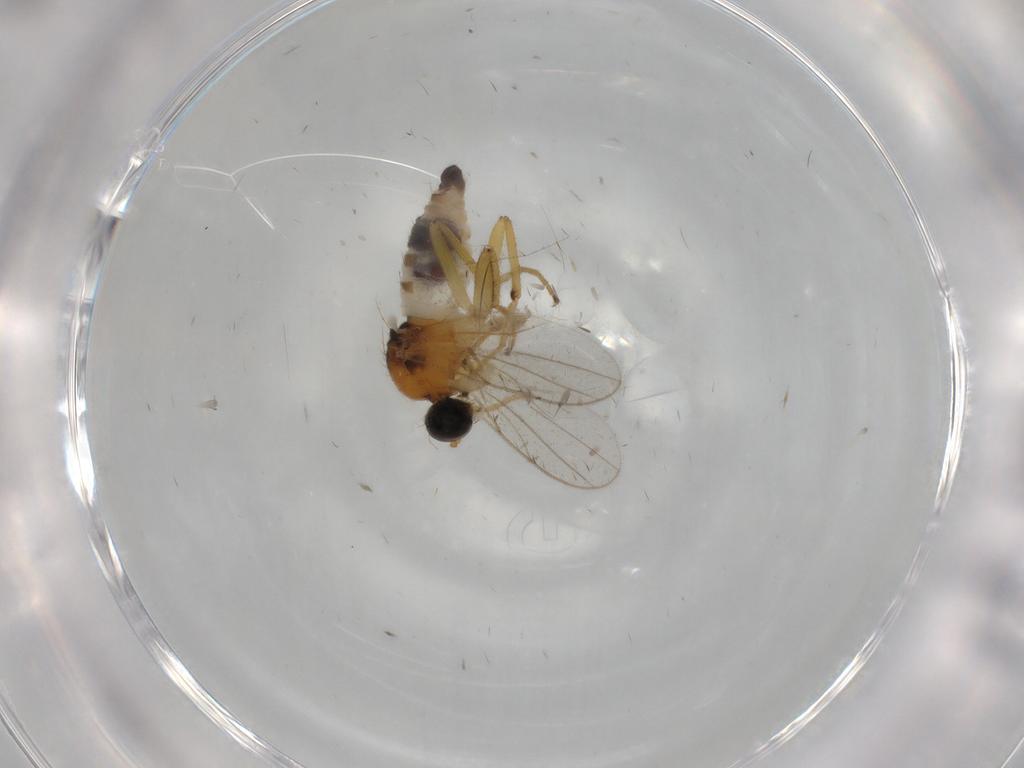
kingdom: Animalia
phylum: Arthropoda
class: Insecta
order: Diptera
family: Hybotidae
